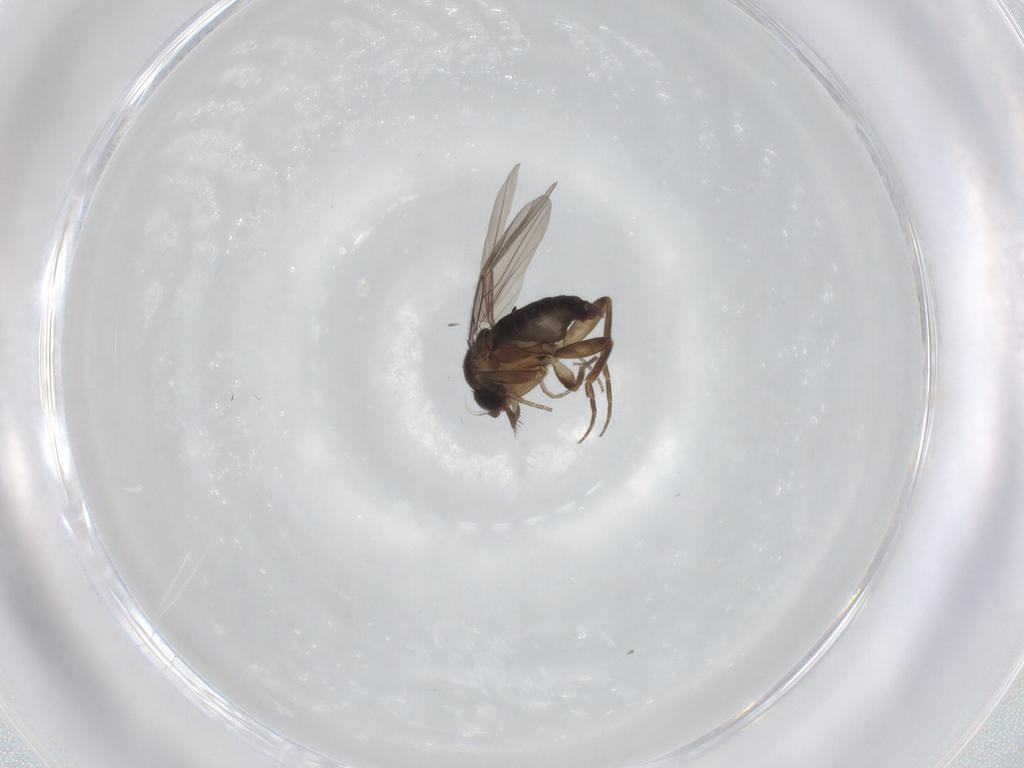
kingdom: Animalia
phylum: Arthropoda
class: Insecta
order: Diptera
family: Phoridae
